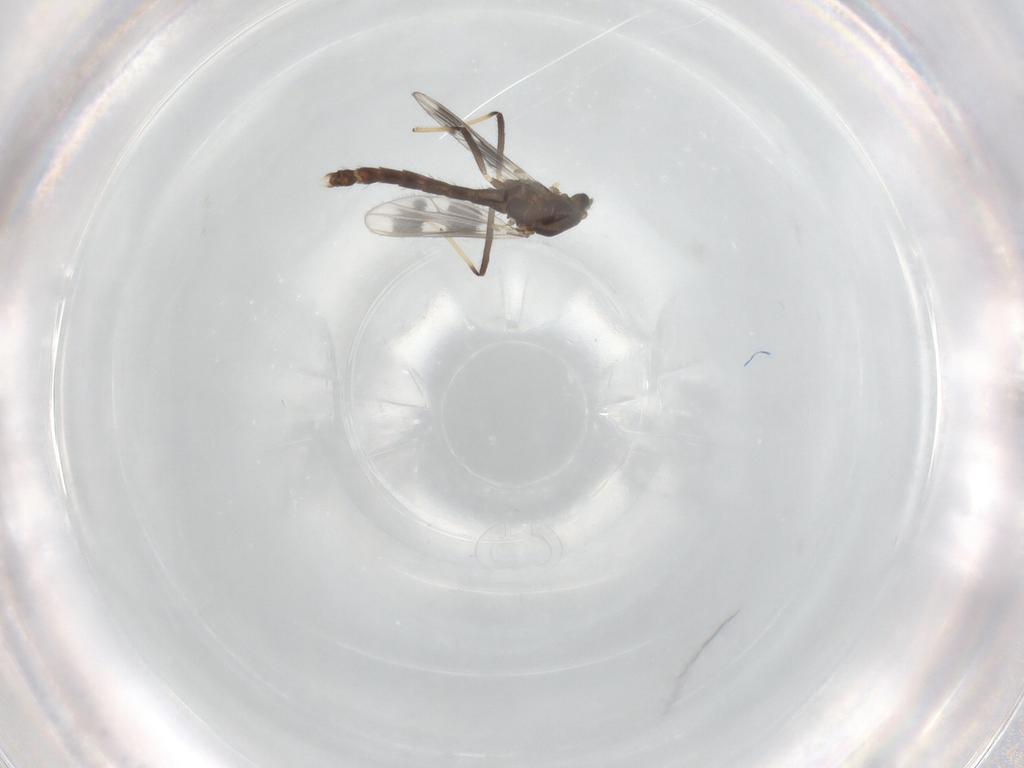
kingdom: Animalia
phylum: Arthropoda
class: Insecta
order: Diptera
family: Chironomidae
